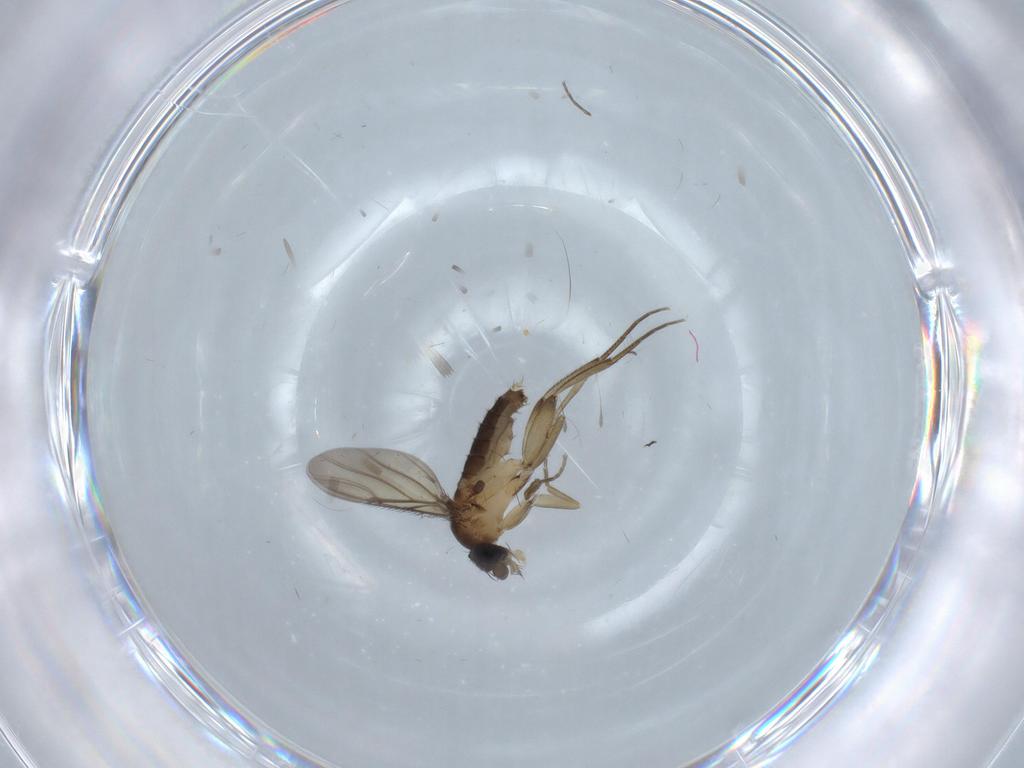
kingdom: Animalia
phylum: Arthropoda
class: Insecta
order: Diptera
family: Phoridae
